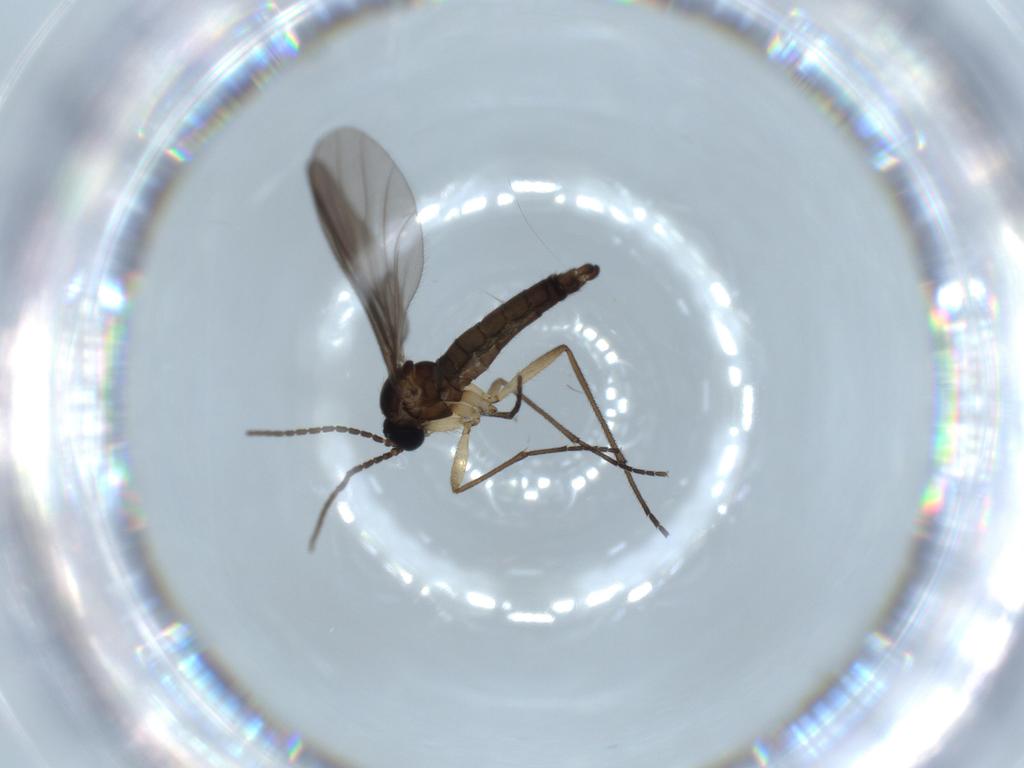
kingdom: Animalia
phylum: Arthropoda
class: Insecta
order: Diptera
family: Sciaridae
